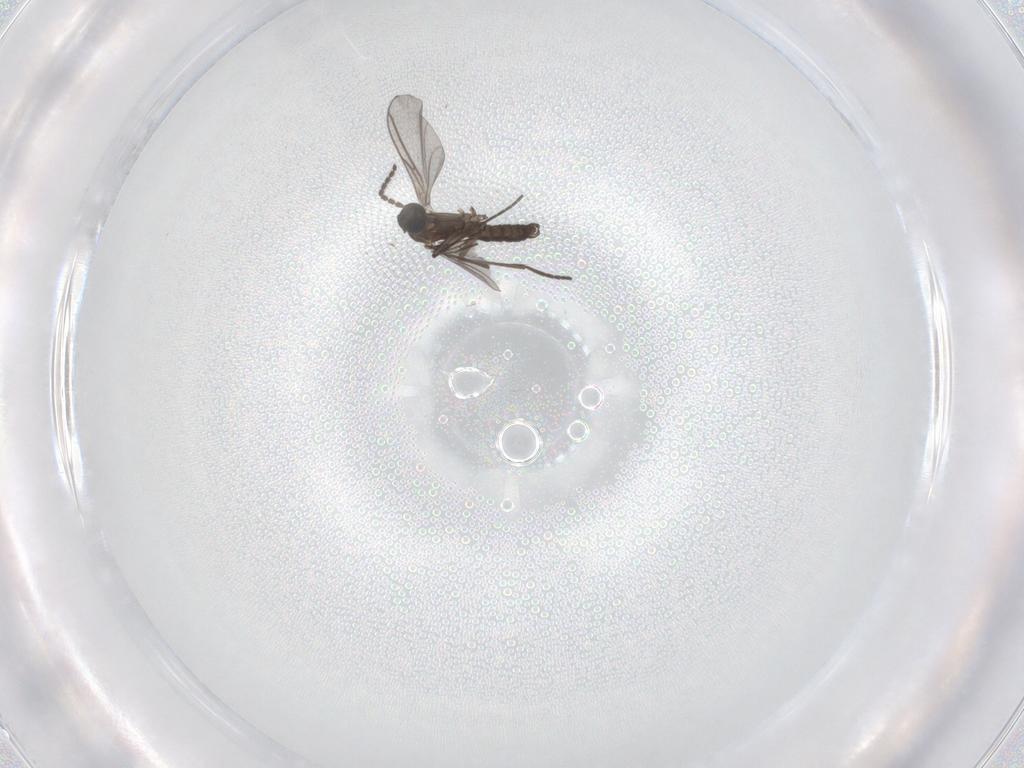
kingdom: Animalia
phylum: Arthropoda
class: Insecta
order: Diptera
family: Sciaridae
